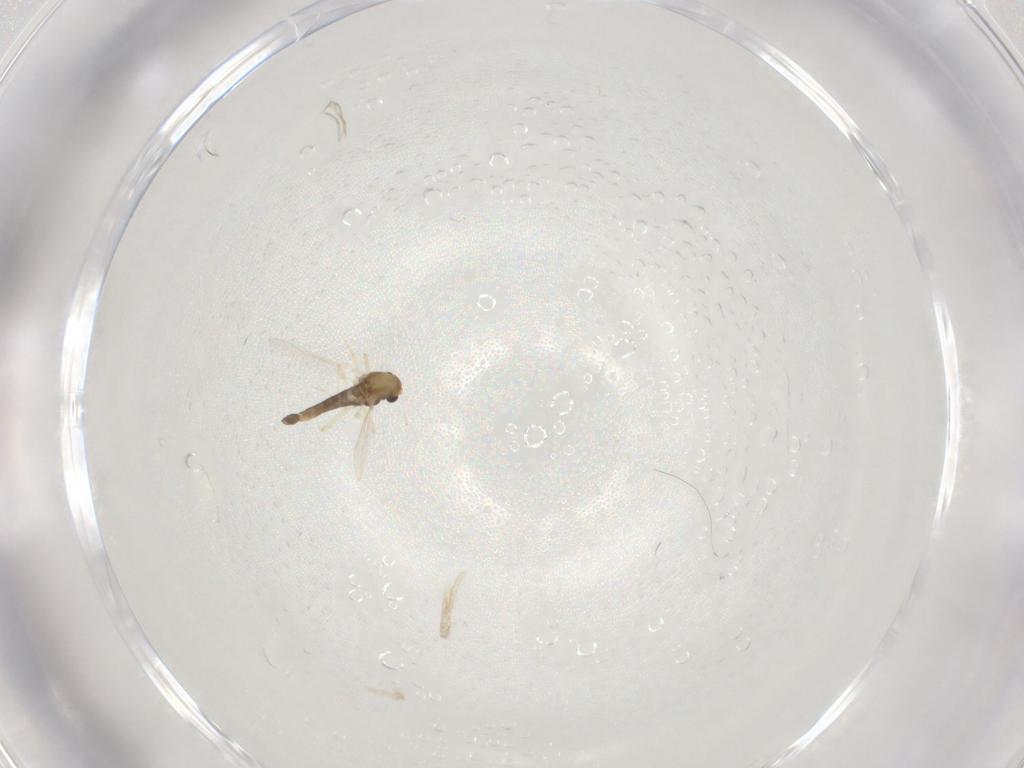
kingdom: Animalia
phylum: Arthropoda
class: Insecta
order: Diptera
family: Chironomidae
